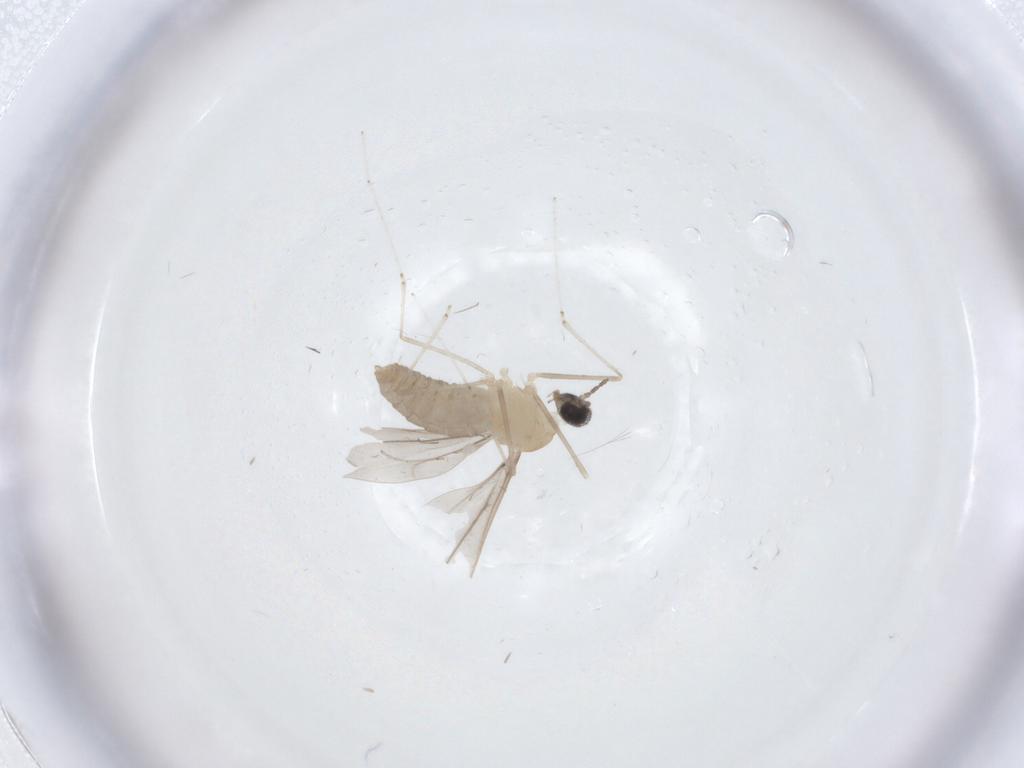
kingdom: Animalia
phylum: Arthropoda
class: Insecta
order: Diptera
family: Cecidomyiidae
